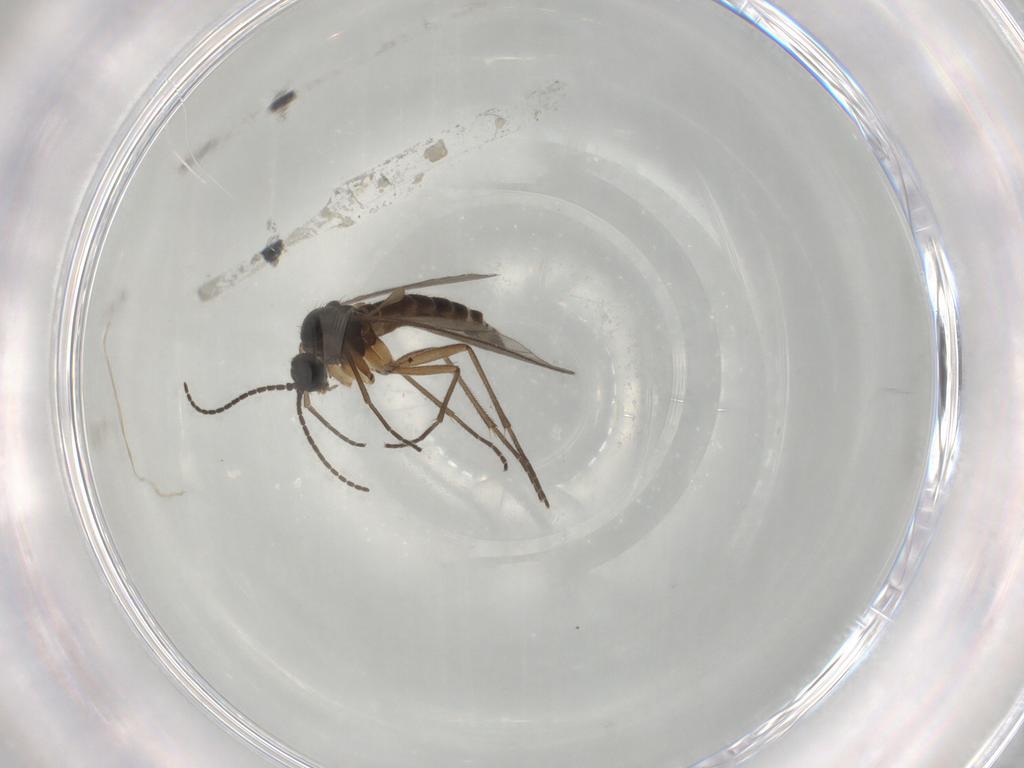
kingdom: Animalia
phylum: Arthropoda
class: Insecta
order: Diptera
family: Sciaridae
